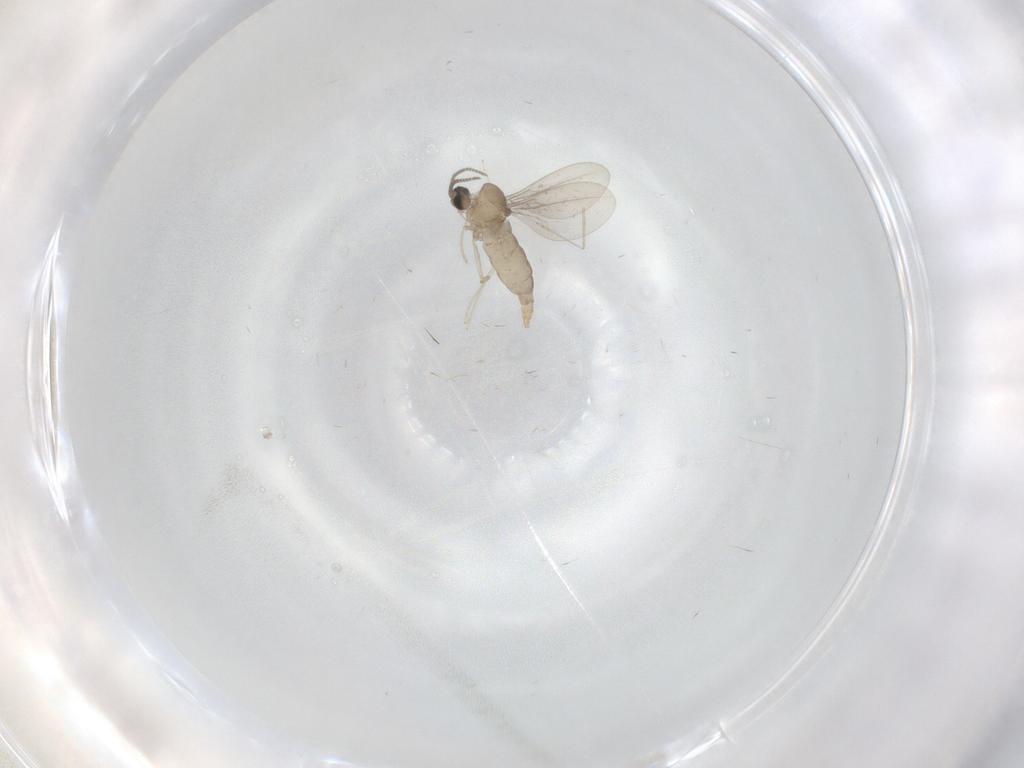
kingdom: Animalia
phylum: Arthropoda
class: Insecta
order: Diptera
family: Cecidomyiidae
